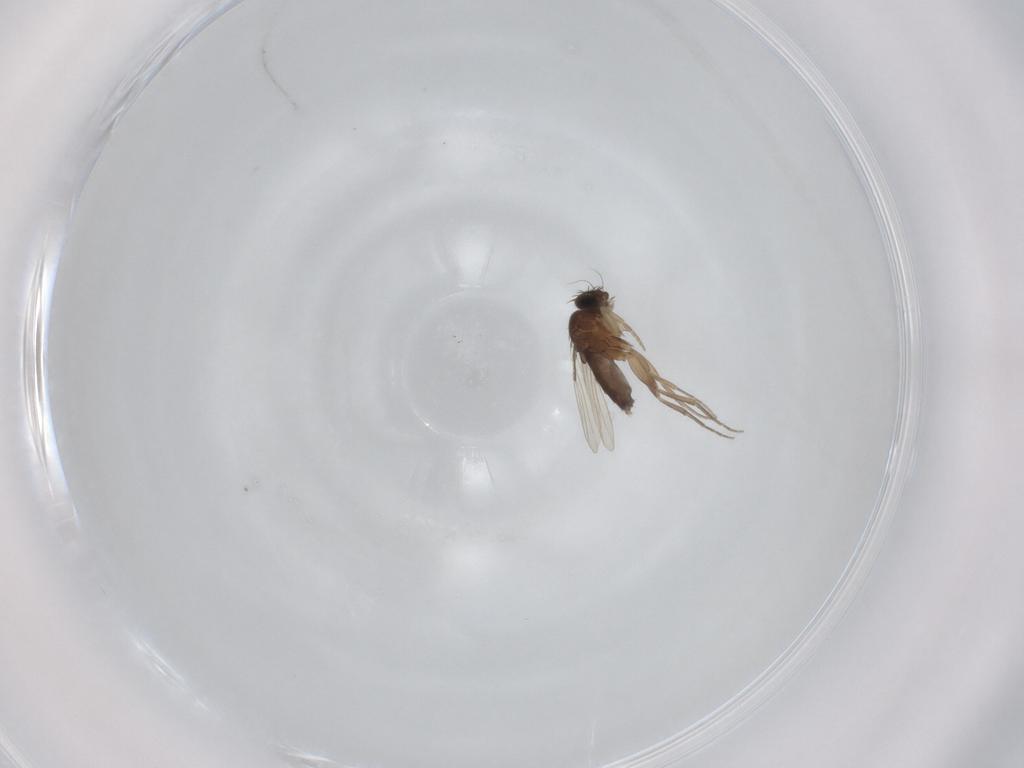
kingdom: Animalia
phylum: Arthropoda
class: Insecta
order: Diptera
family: Phoridae
